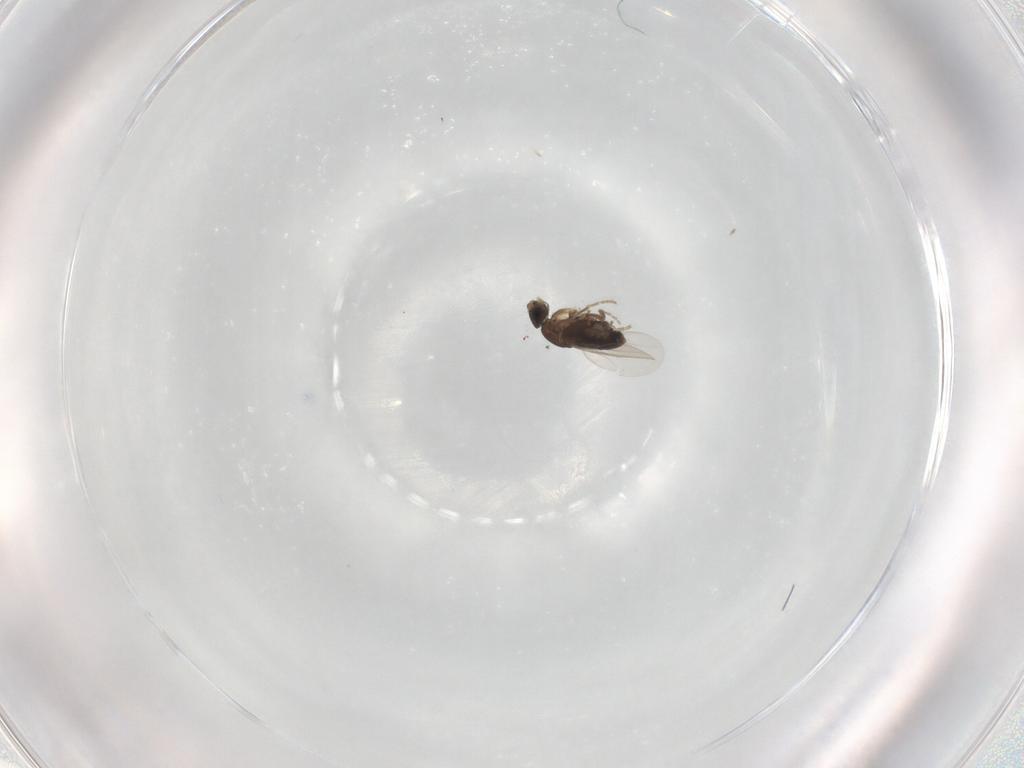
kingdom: Animalia
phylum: Arthropoda
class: Insecta
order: Diptera
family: Phoridae
